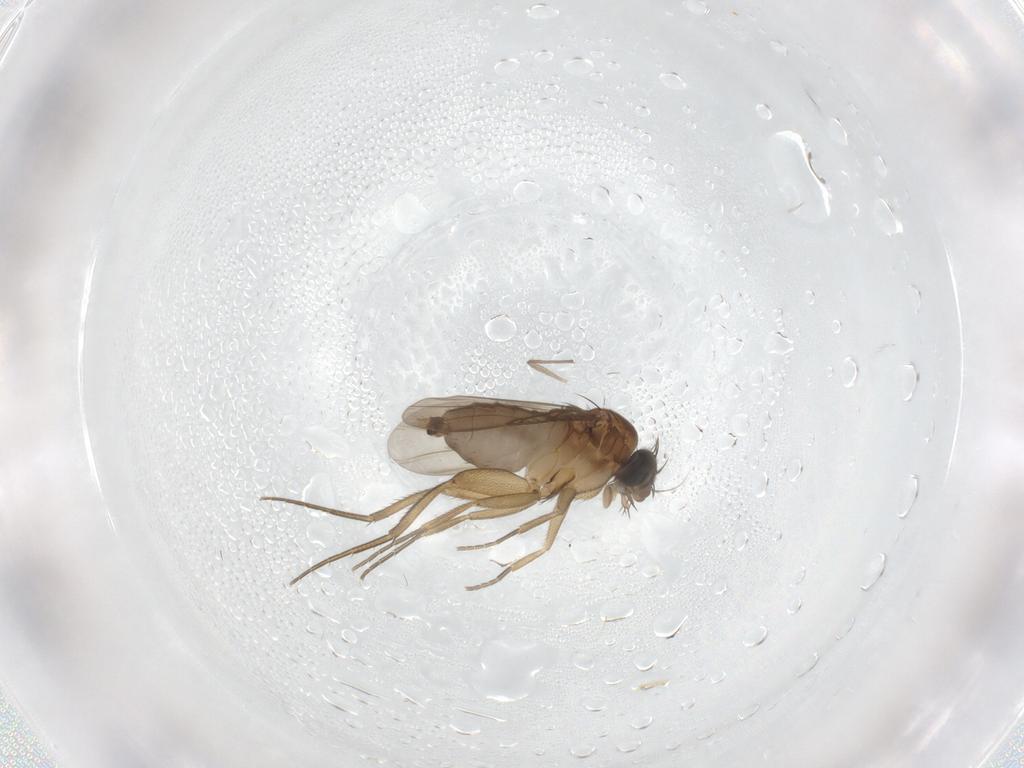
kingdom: Animalia
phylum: Arthropoda
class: Insecta
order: Diptera
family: Phoridae
